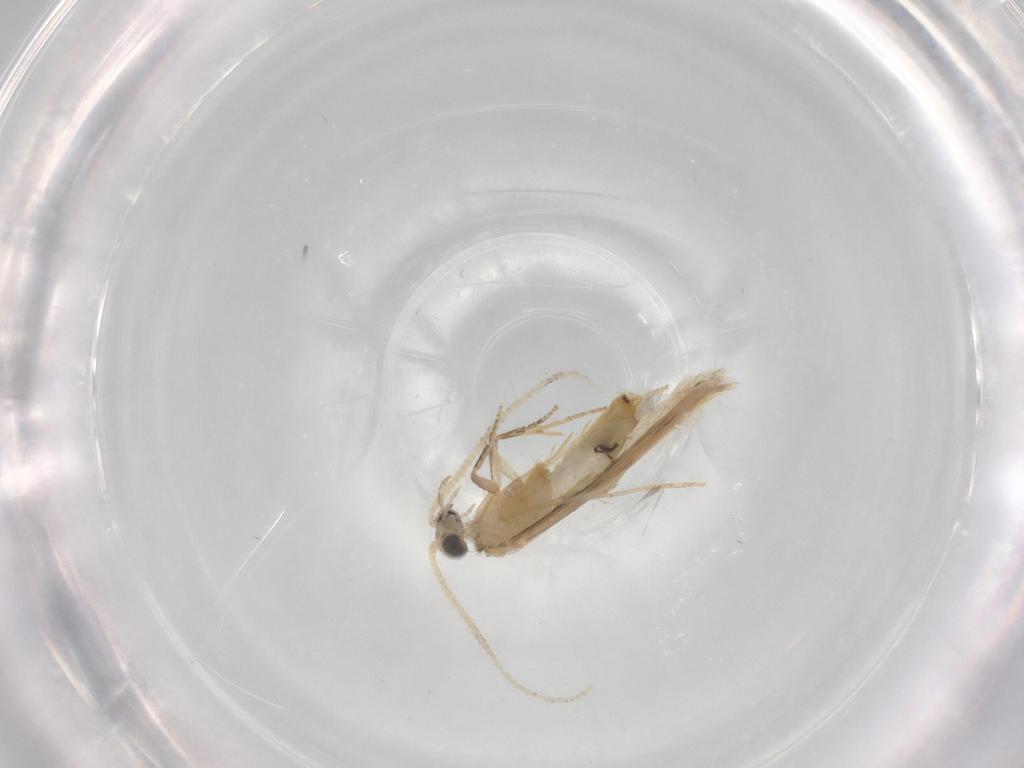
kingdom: Animalia
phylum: Arthropoda
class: Insecta
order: Trichoptera
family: Hydroptilidae
